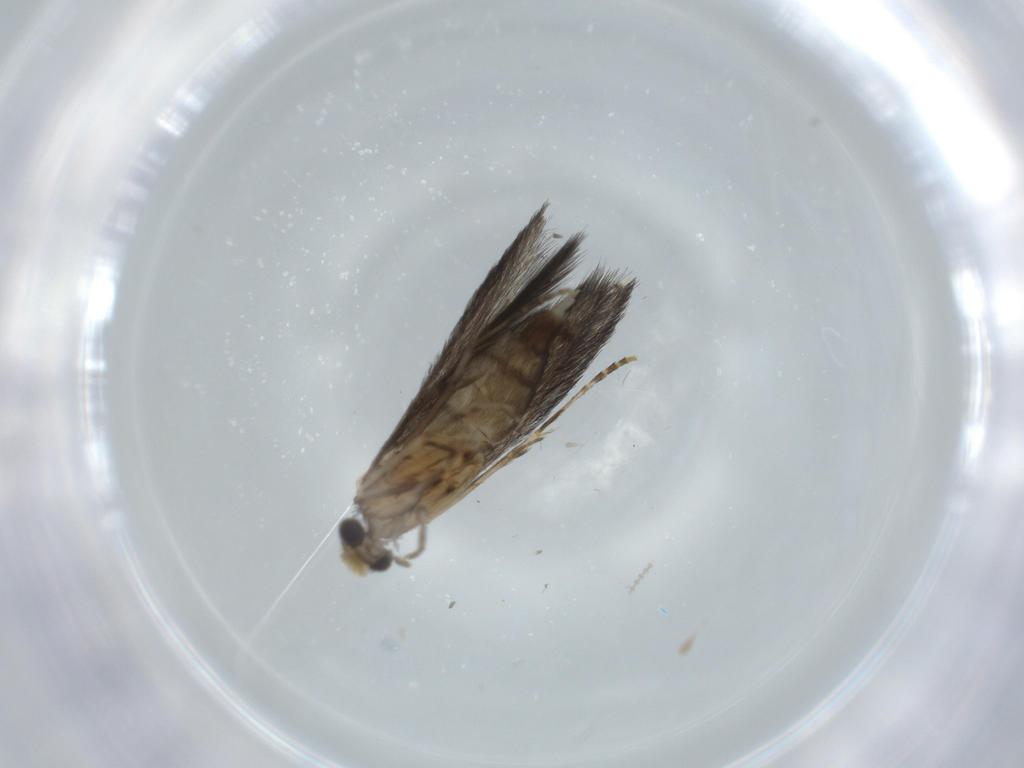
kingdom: Animalia
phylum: Arthropoda
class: Insecta
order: Trichoptera
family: Hydroptilidae
